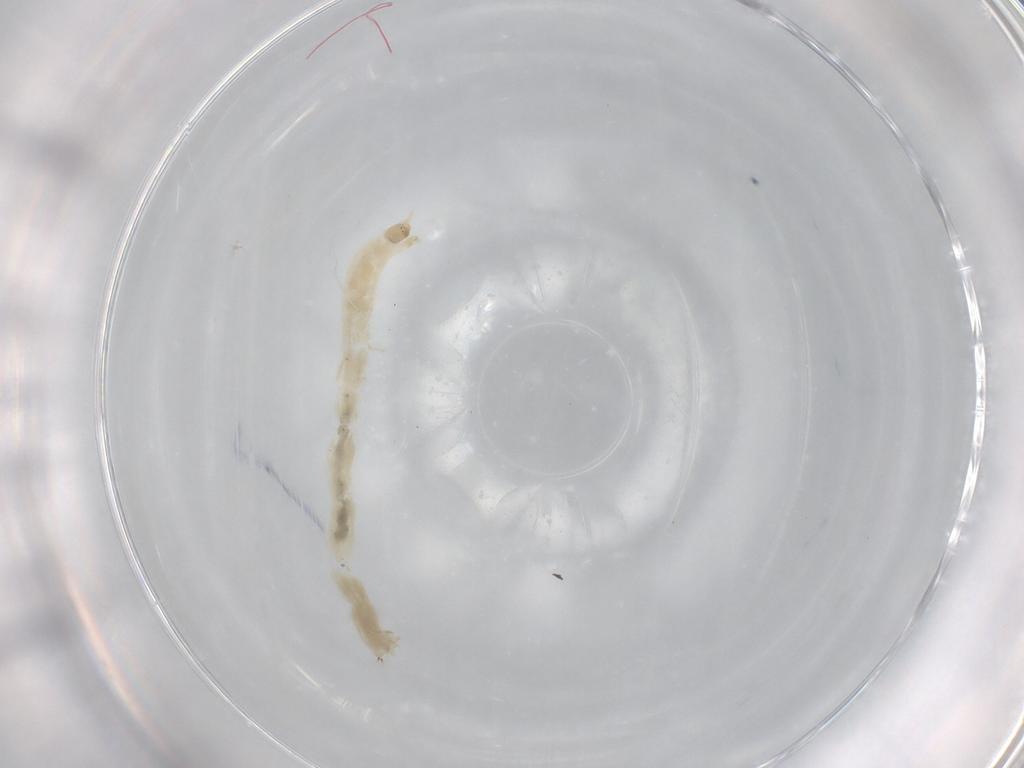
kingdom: Animalia
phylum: Arthropoda
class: Insecta
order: Diptera
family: Chironomidae
